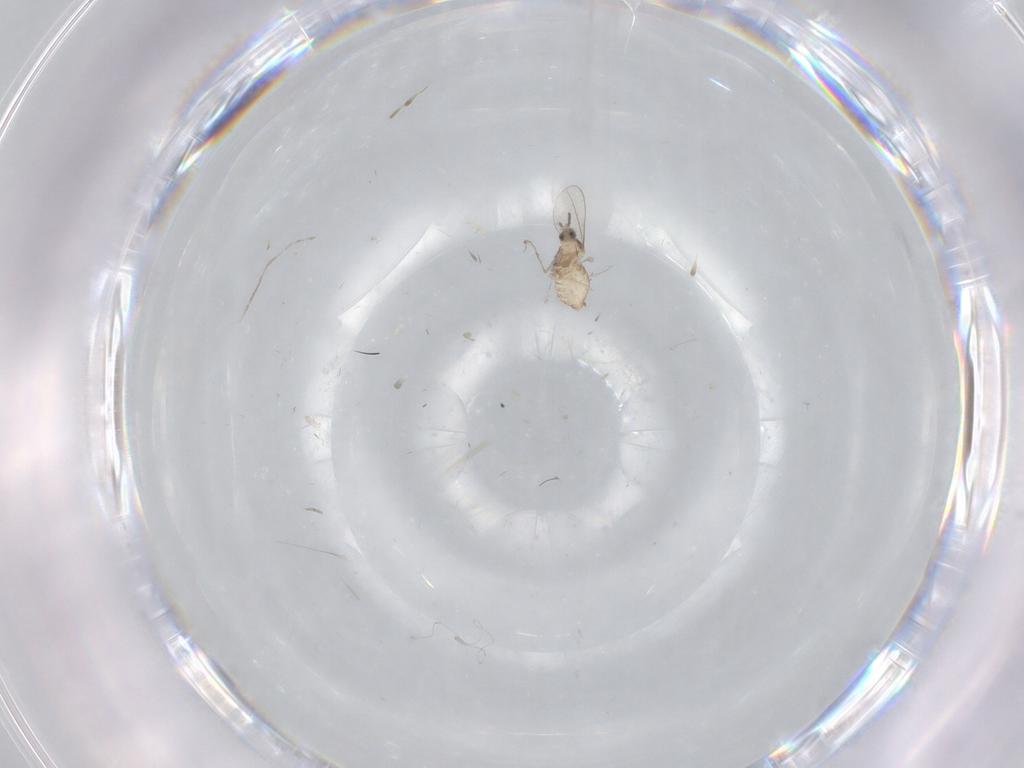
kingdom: Animalia
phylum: Arthropoda
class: Insecta
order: Diptera
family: Cecidomyiidae
